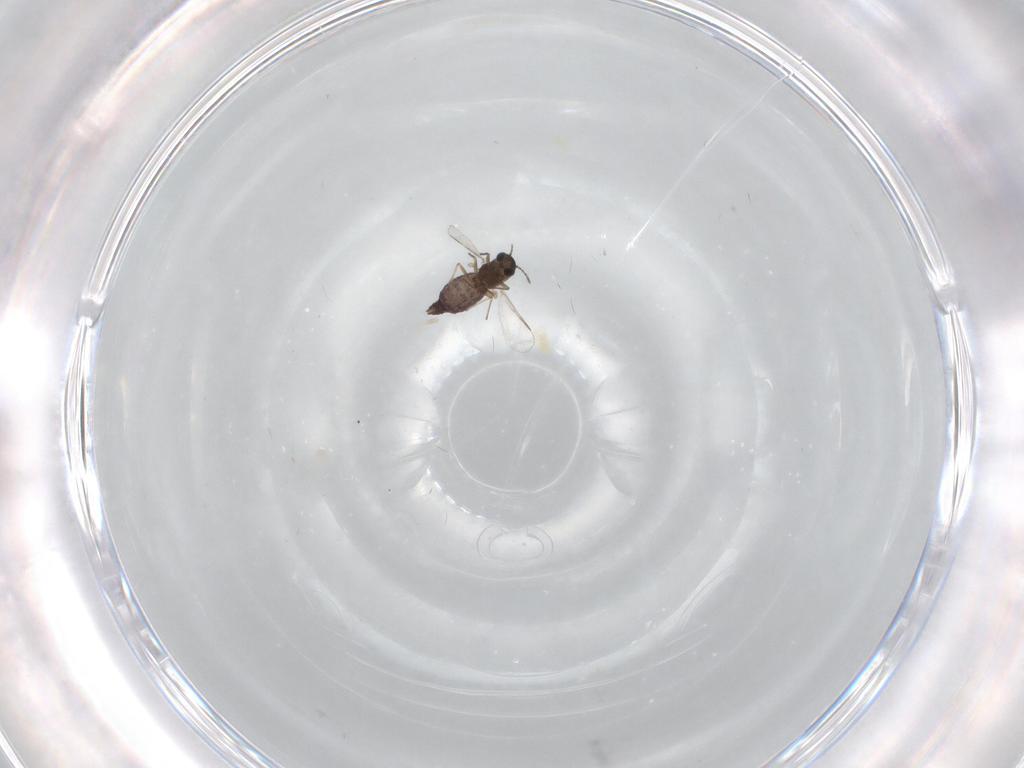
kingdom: Animalia
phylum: Arthropoda
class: Insecta
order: Diptera
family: Chironomidae
